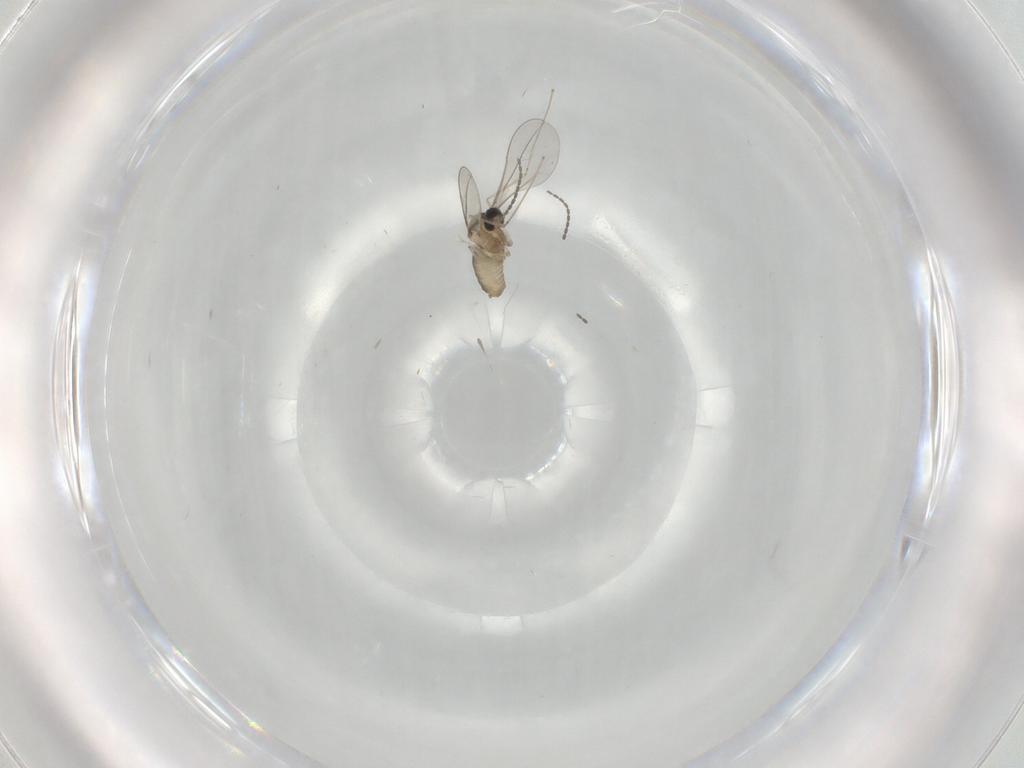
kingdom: Animalia
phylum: Arthropoda
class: Insecta
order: Diptera
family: Cecidomyiidae
